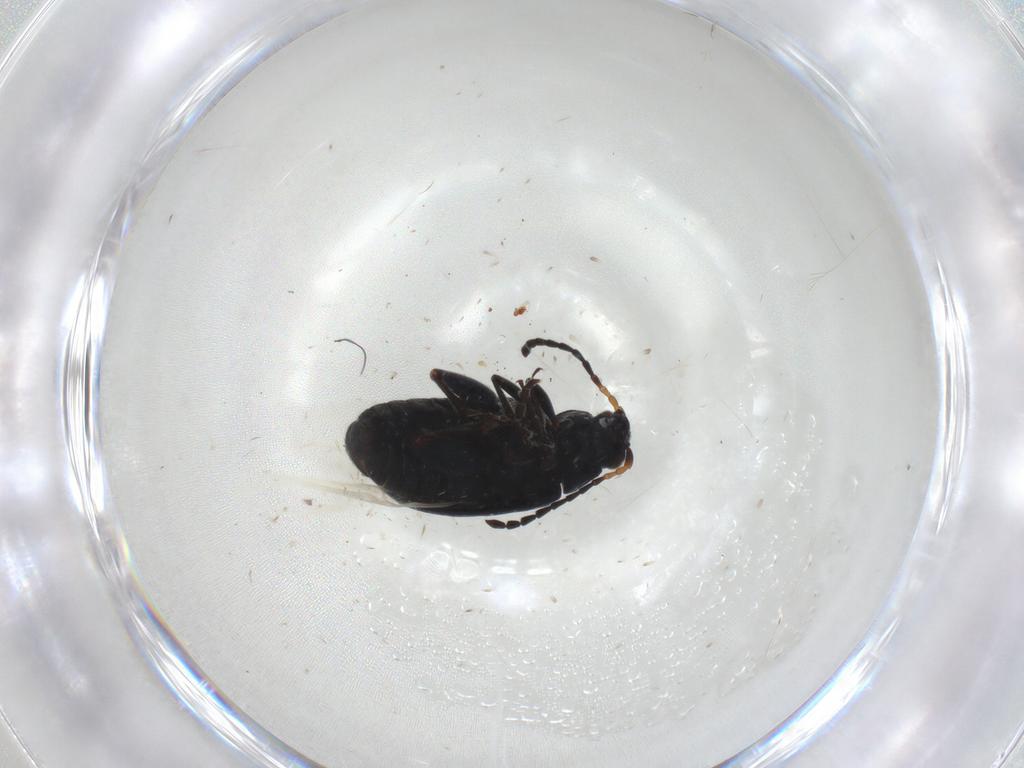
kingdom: Animalia
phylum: Arthropoda
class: Insecta
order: Coleoptera
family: Chrysomelidae
